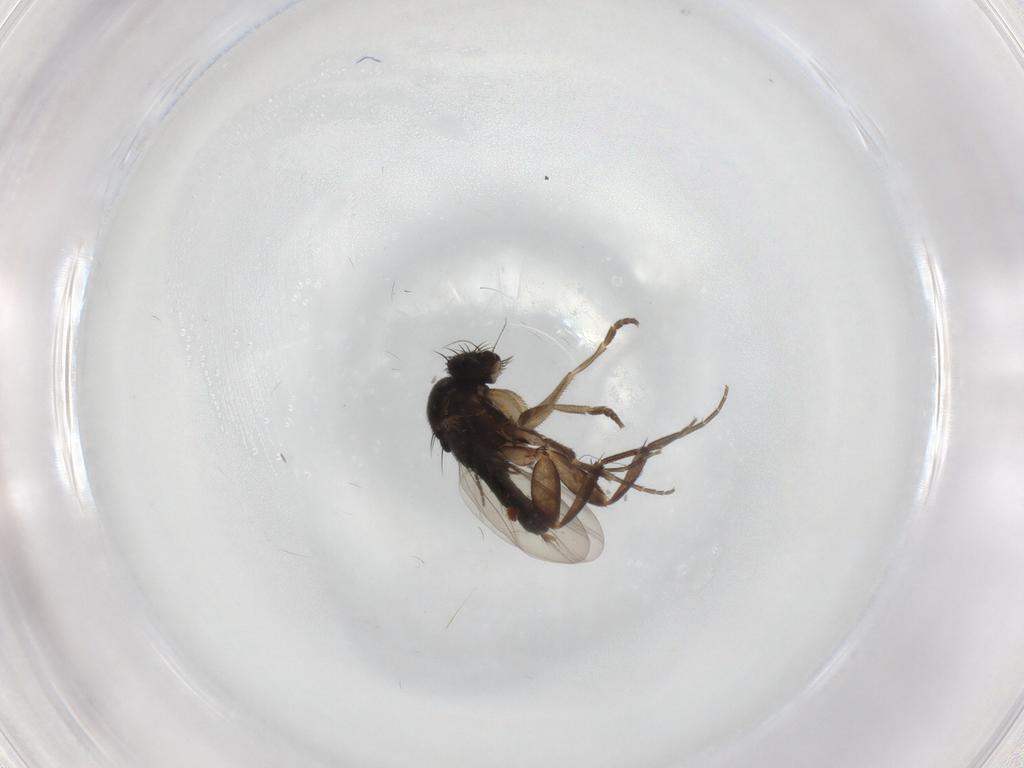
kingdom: Animalia
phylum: Arthropoda
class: Insecta
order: Diptera
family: Phoridae
